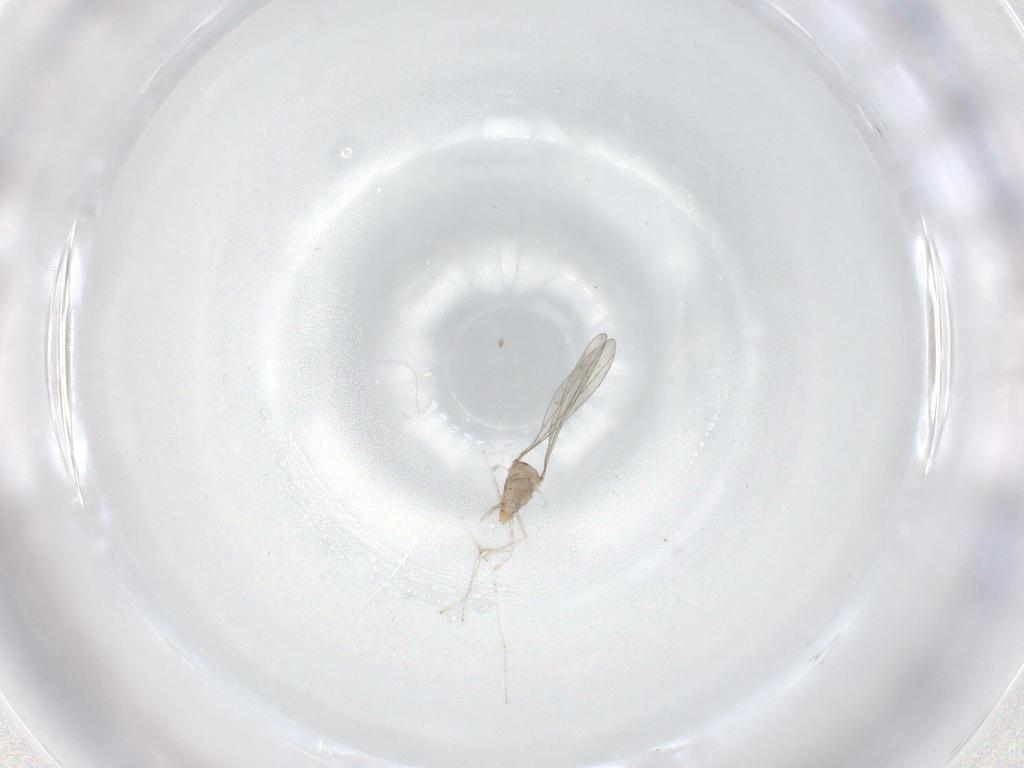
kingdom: Animalia
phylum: Arthropoda
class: Insecta
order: Diptera
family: Cecidomyiidae
